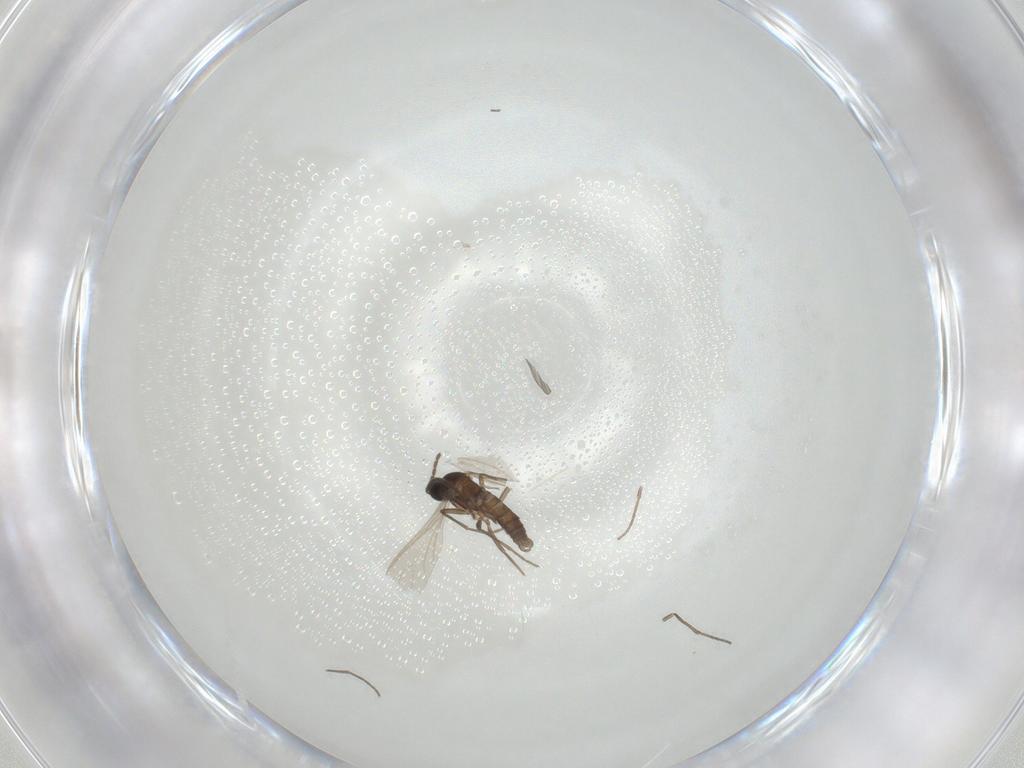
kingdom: Animalia
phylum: Arthropoda
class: Insecta
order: Diptera
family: Sciaridae
